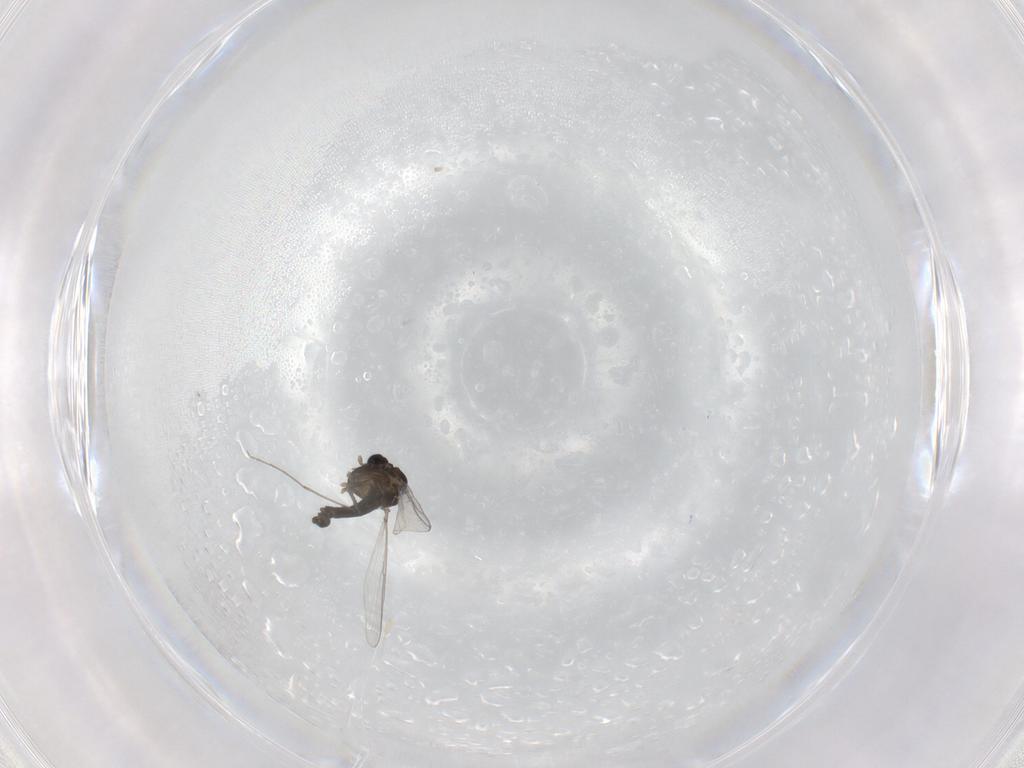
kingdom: Animalia
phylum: Arthropoda
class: Insecta
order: Diptera
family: Chironomidae
